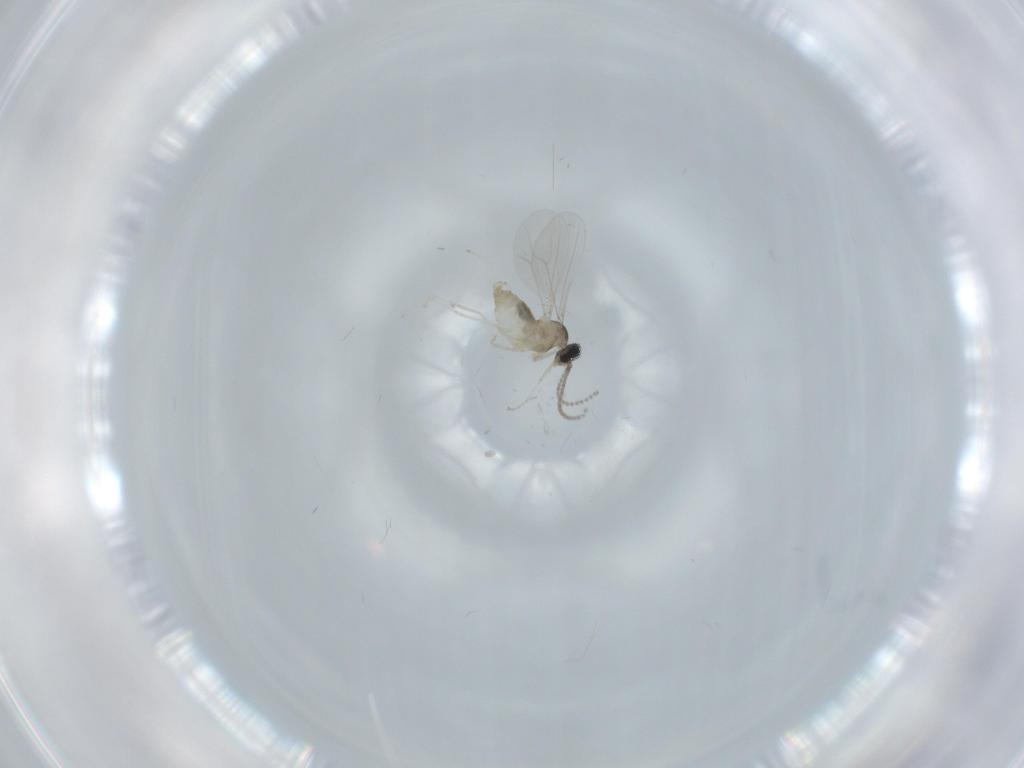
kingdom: Animalia
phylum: Arthropoda
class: Insecta
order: Diptera
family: Cecidomyiidae
